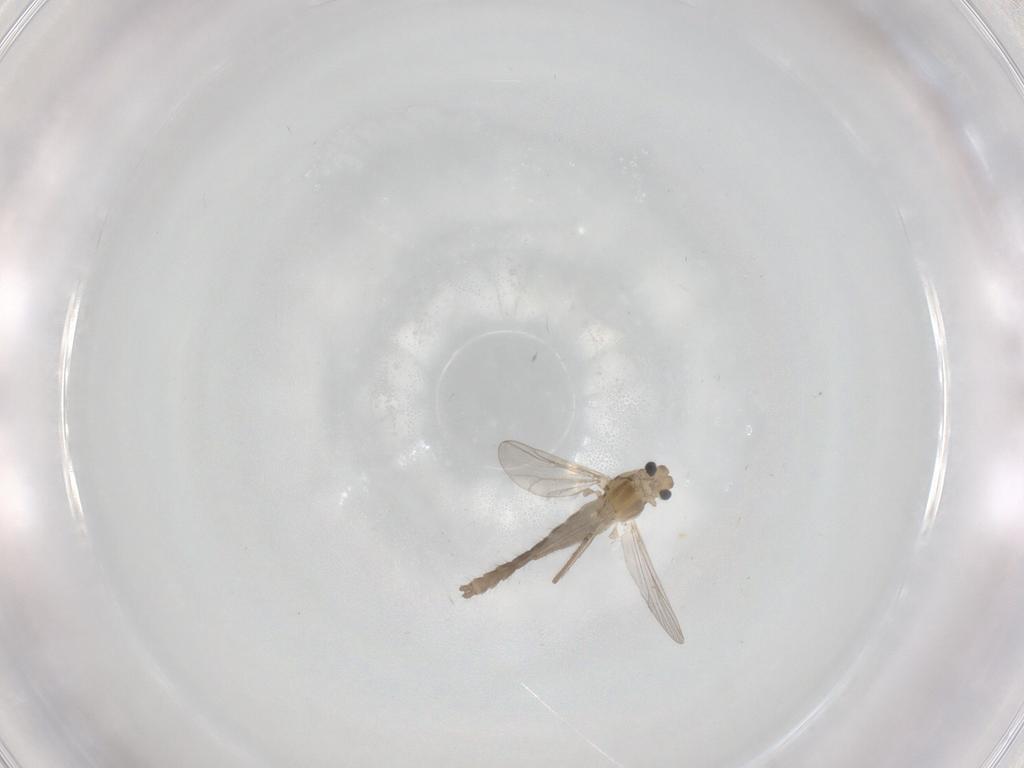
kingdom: Animalia
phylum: Arthropoda
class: Insecta
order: Diptera
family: Chironomidae
